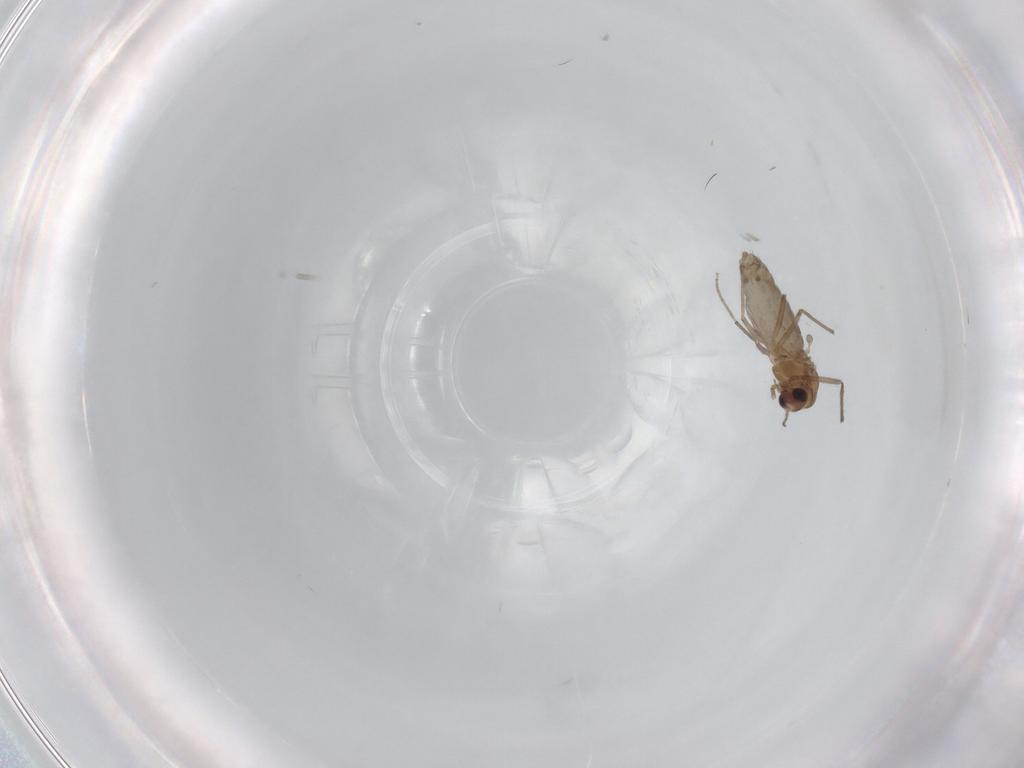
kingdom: Animalia
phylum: Arthropoda
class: Insecta
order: Diptera
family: Chironomidae
